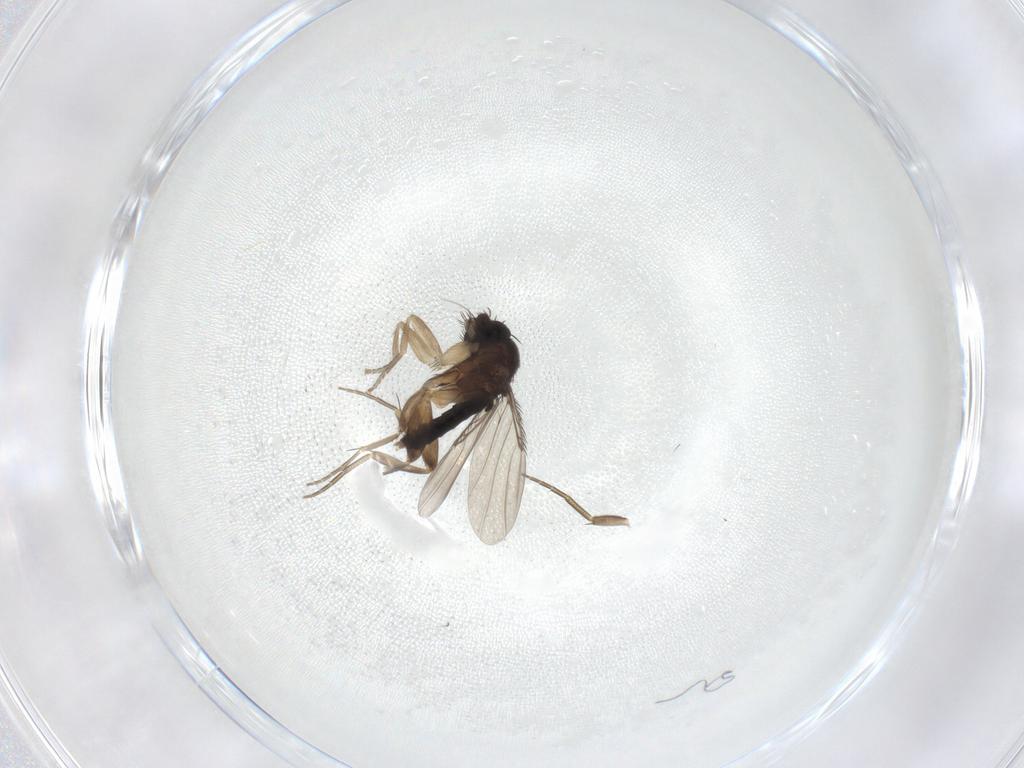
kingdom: Animalia
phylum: Arthropoda
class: Insecta
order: Diptera
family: Phoridae
